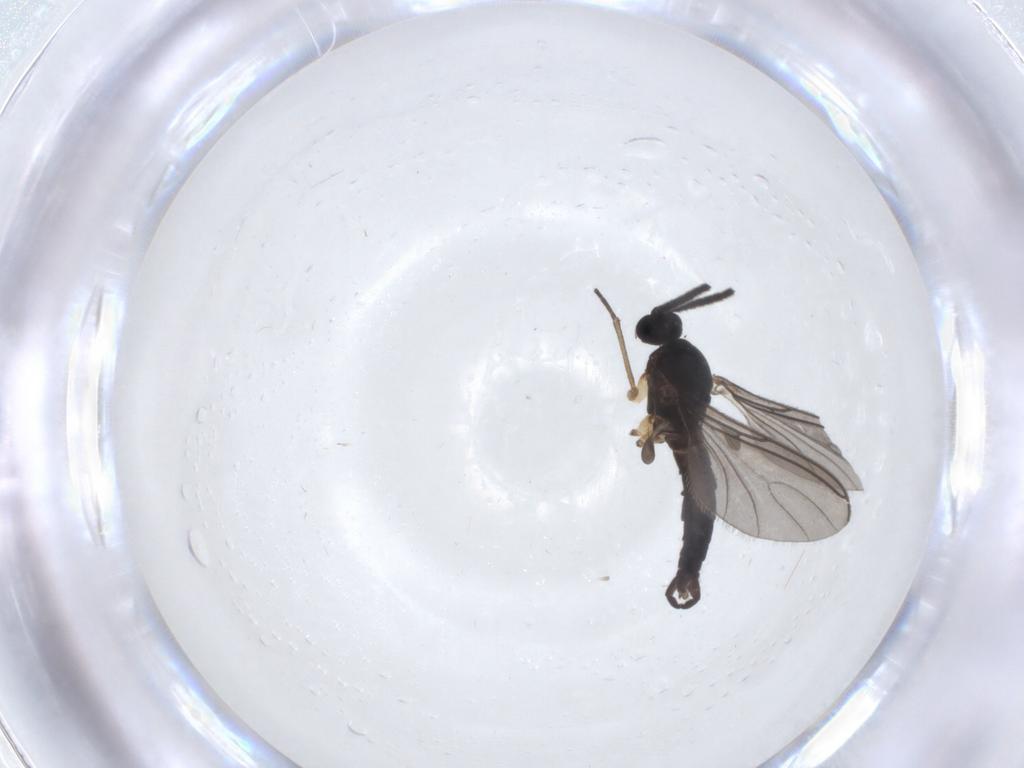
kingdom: Animalia
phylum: Arthropoda
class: Insecta
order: Diptera
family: Sciaridae
